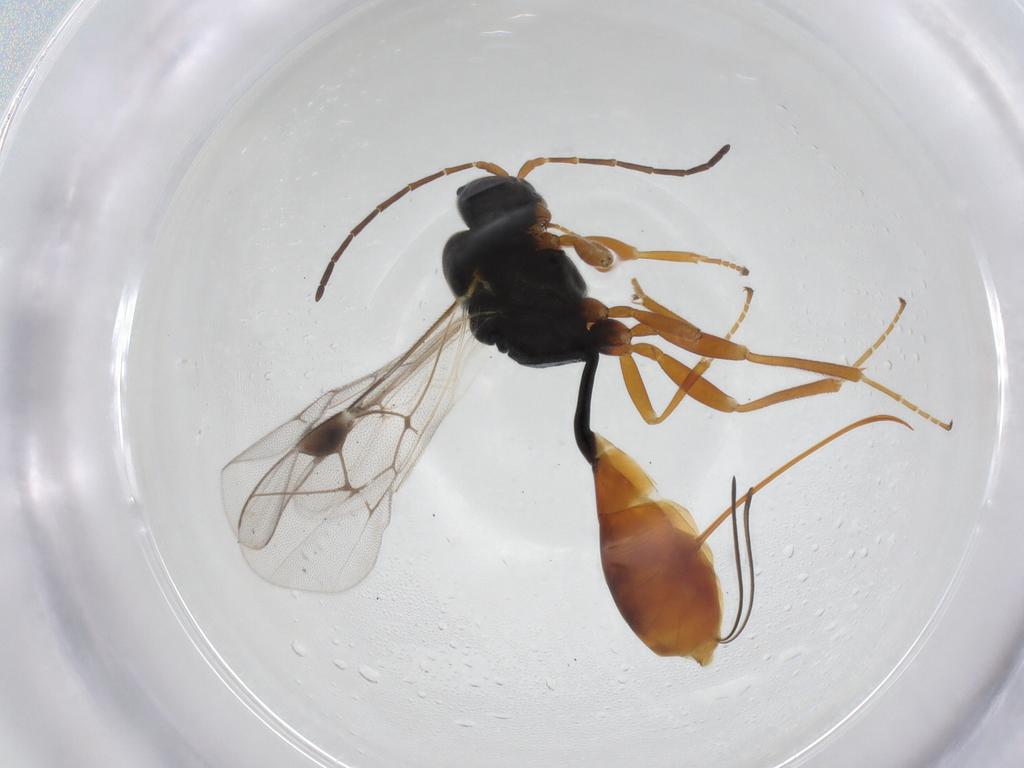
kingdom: Animalia
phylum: Arthropoda
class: Insecta
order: Hymenoptera
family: Ichneumonidae
